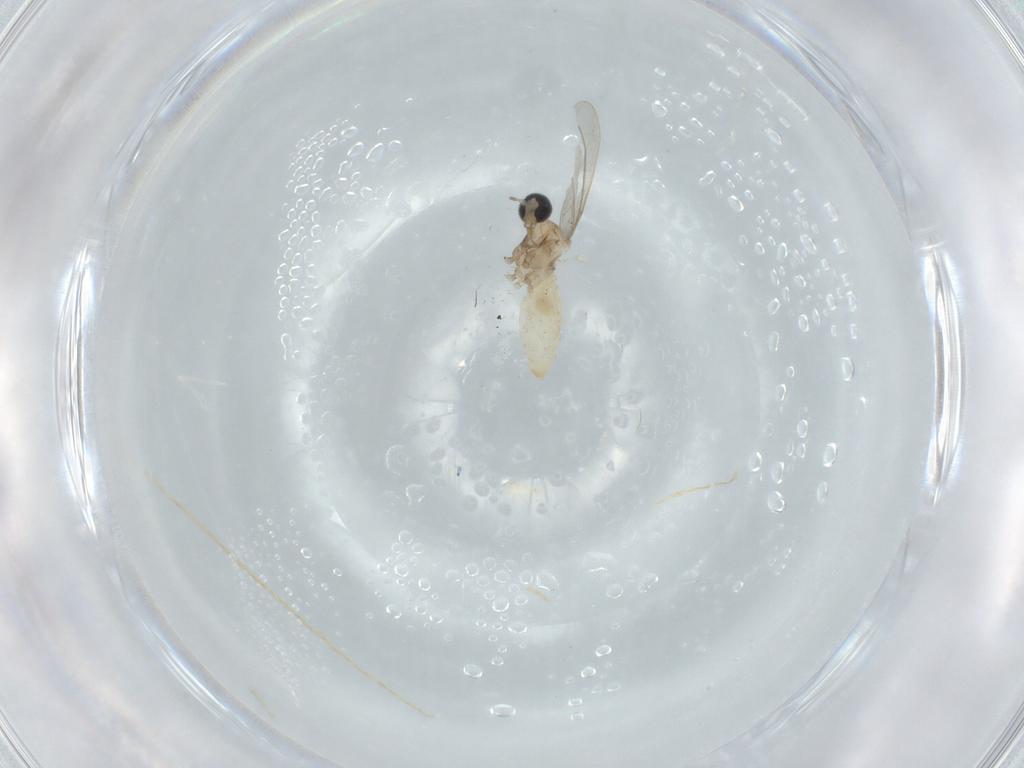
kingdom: Animalia
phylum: Arthropoda
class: Insecta
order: Diptera
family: Cecidomyiidae
